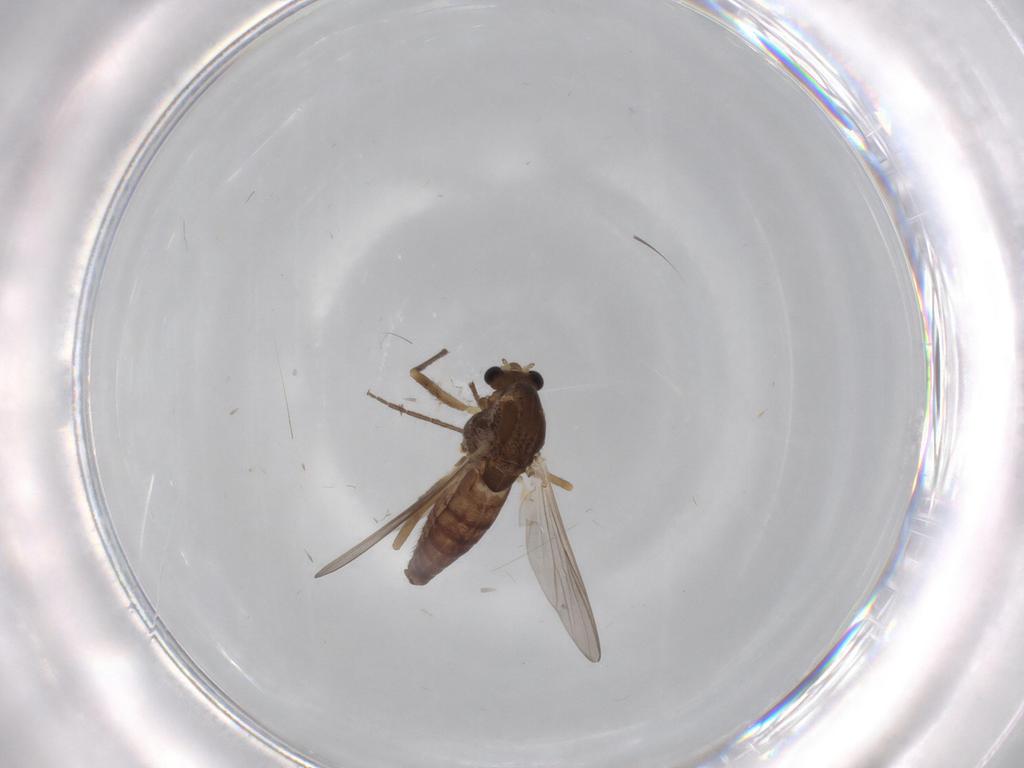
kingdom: Animalia
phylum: Arthropoda
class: Insecta
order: Diptera
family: Chironomidae
